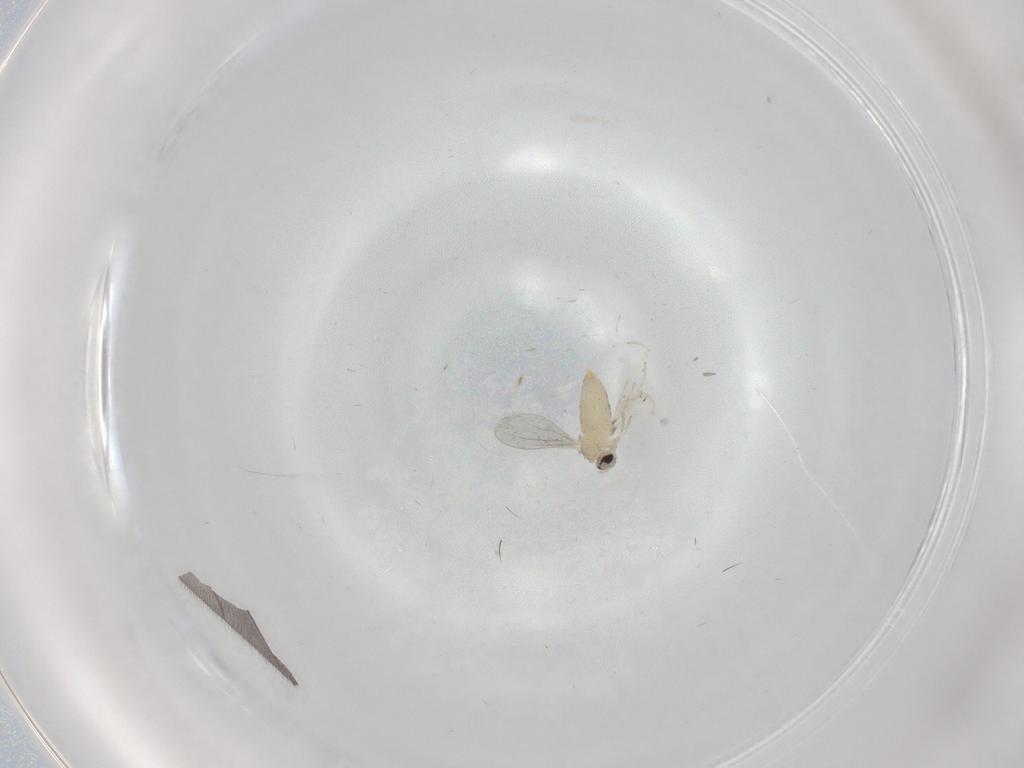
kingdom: Animalia
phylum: Arthropoda
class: Insecta
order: Diptera
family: Cecidomyiidae
